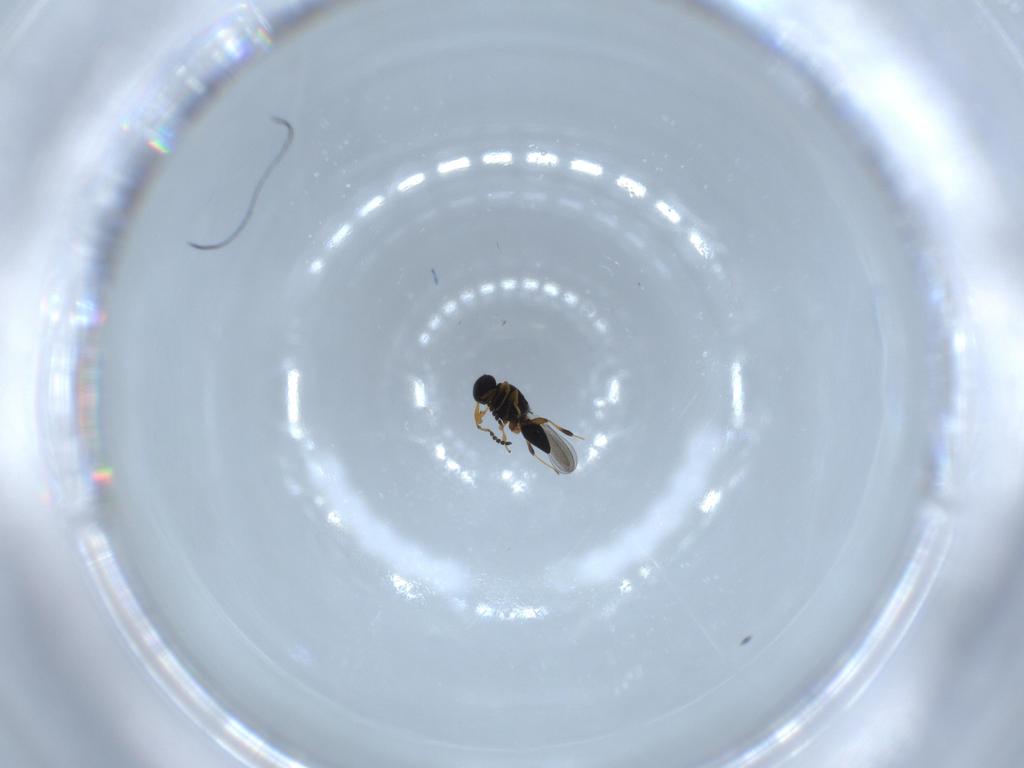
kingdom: Animalia
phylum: Arthropoda
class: Insecta
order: Hymenoptera
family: Platygastridae
